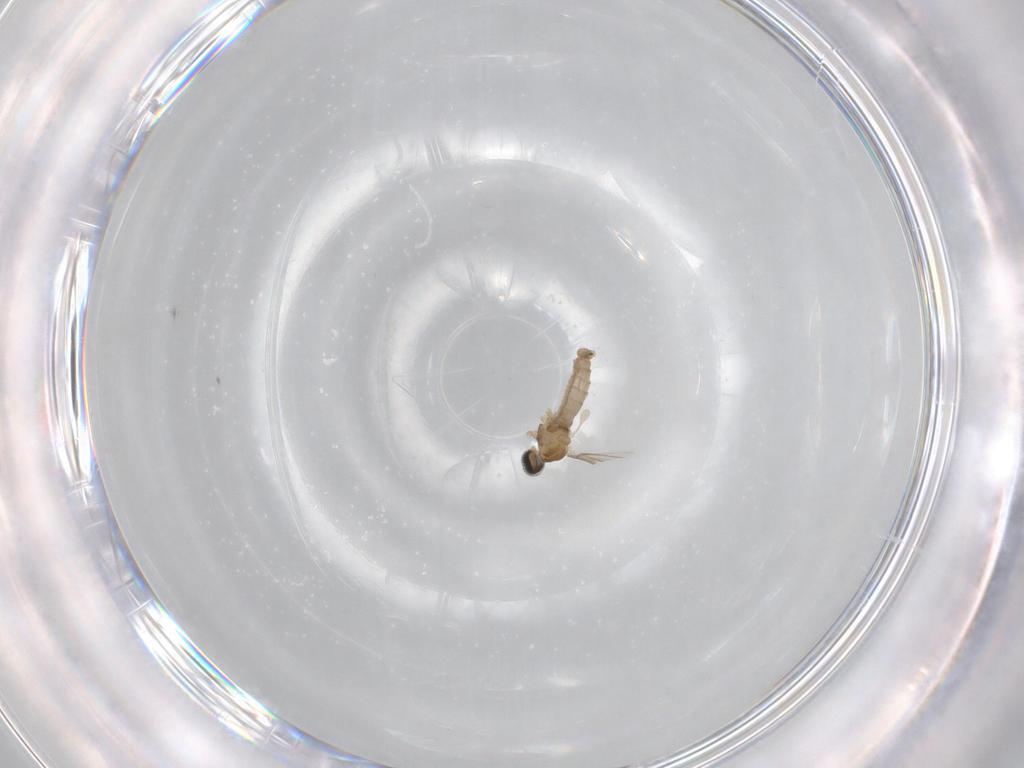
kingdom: Animalia
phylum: Arthropoda
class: Insecta
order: Diptera
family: Cecidomyiidae
